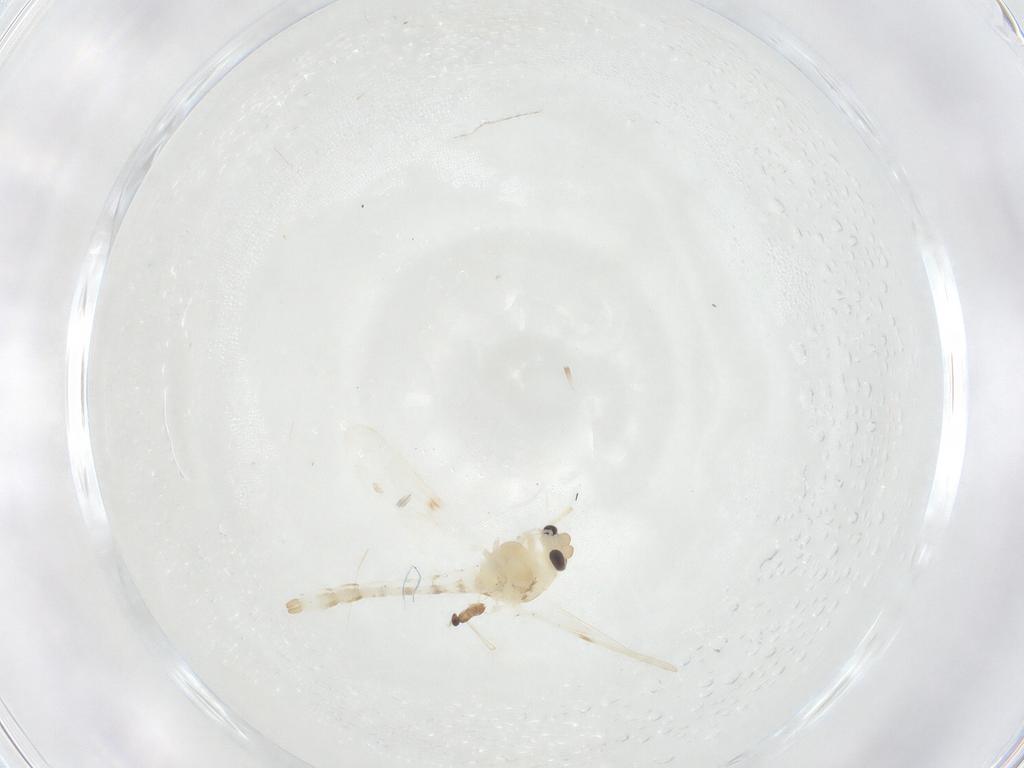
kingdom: Animalia
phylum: Arthropoda
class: Insecta
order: Diptera
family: Chironomidae
